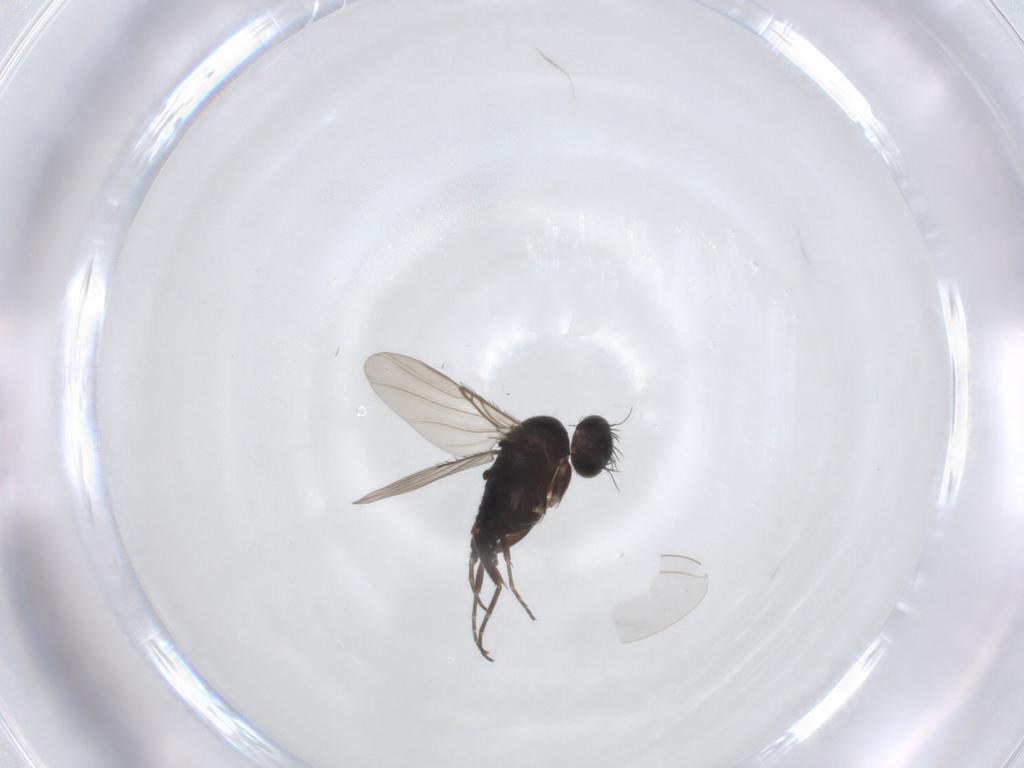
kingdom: Animalia
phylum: Arthropoda
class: Insecta
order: Diptera
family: Phoridae
